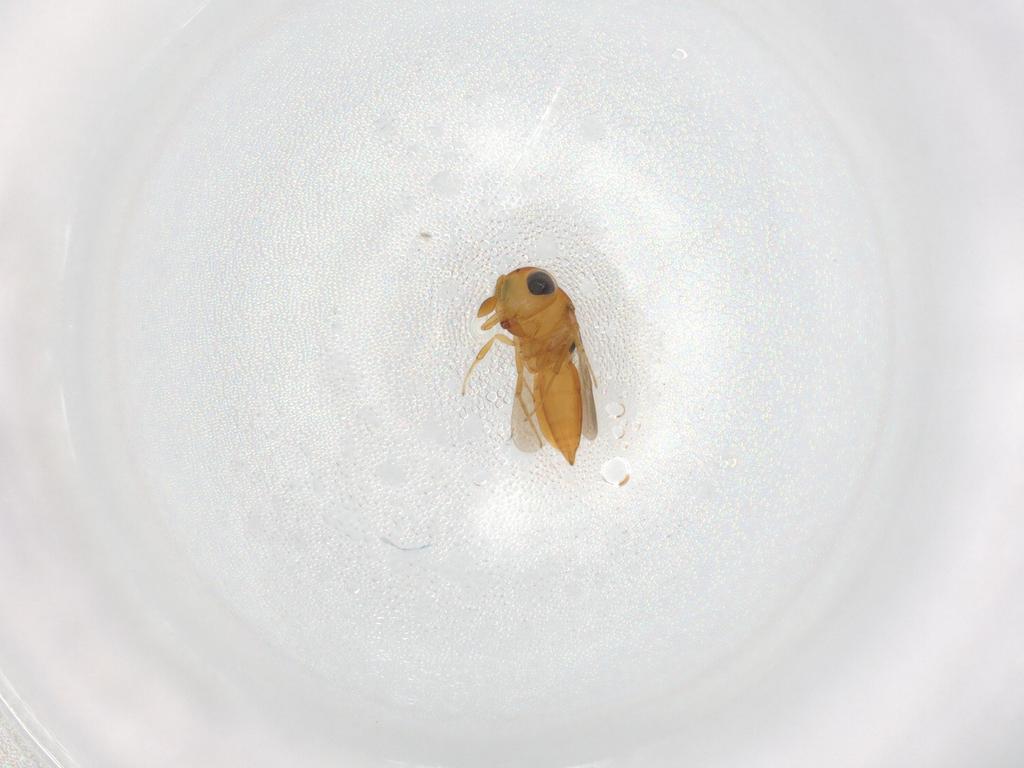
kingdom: Animalia
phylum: Arthropoda
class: Insecta
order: Hymenoptera
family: Scelionidae
